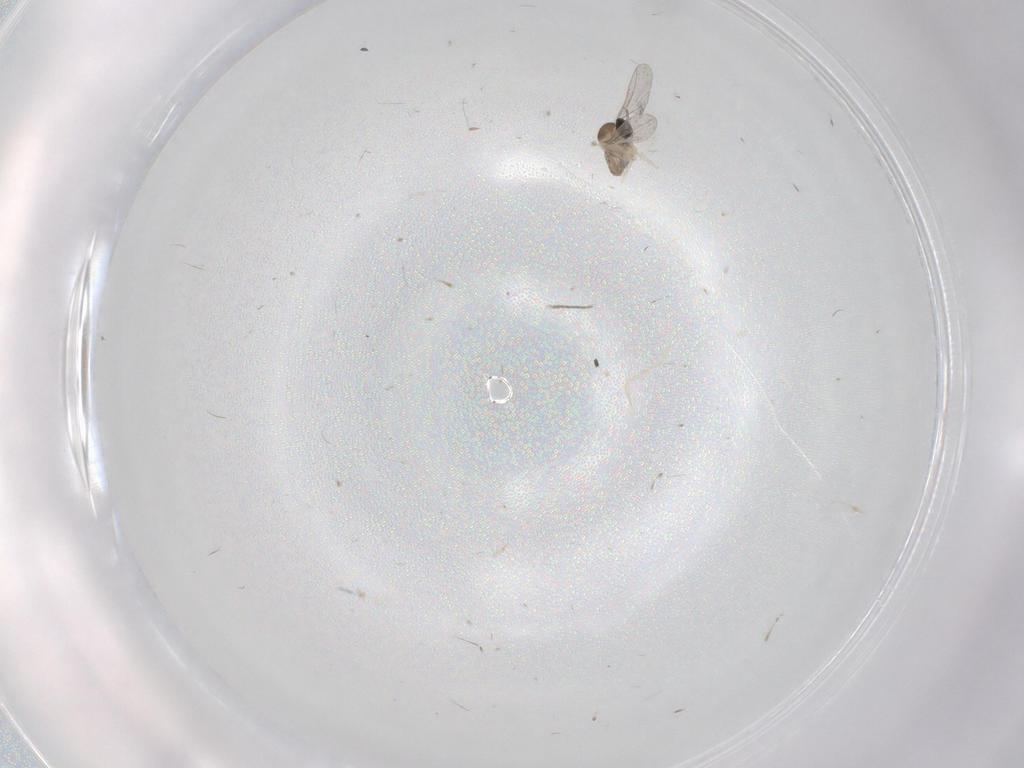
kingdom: Animalia
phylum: Arthropoda
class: Insecta
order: Diptera
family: Cecidomyiidae
